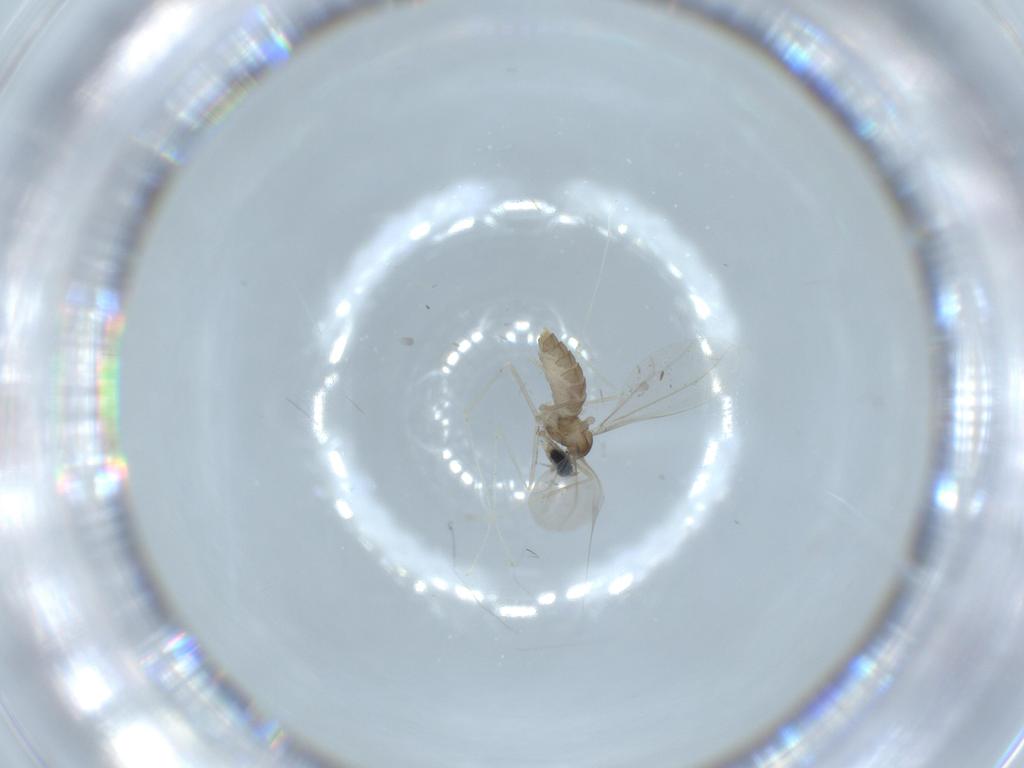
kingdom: Animalia
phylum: Arthropoda
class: Insecta
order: Diptera
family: Cecidomyiidae
